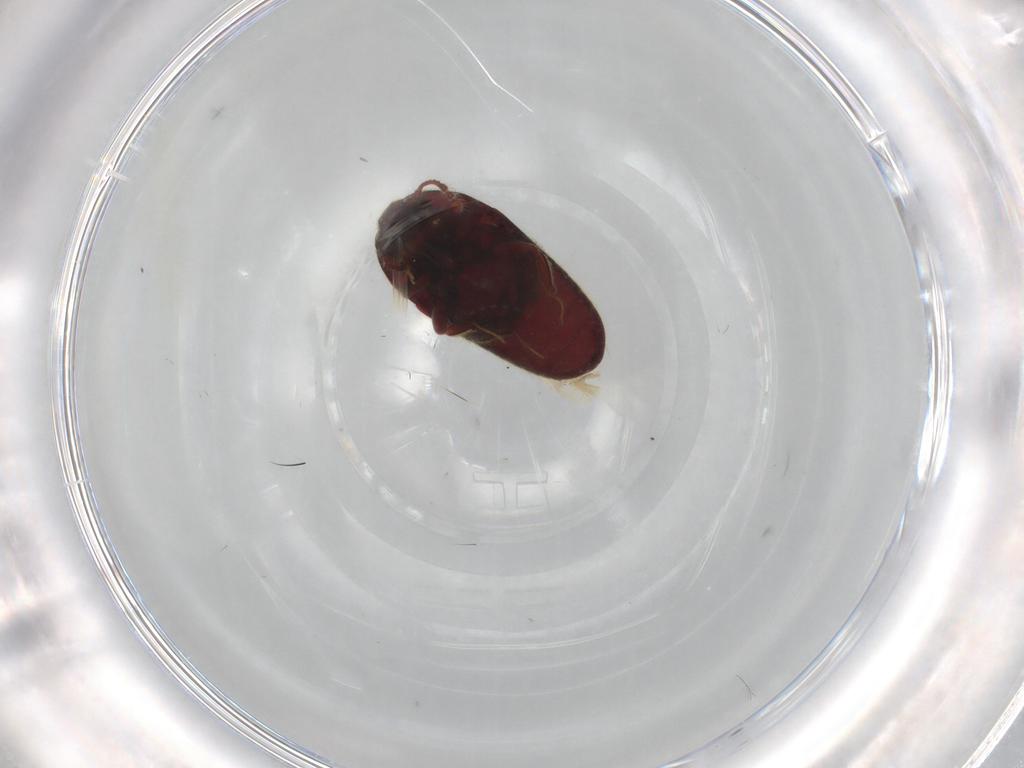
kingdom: Animalia
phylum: Arthropoda
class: Insecta
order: Coleoptera
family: Throscidae
